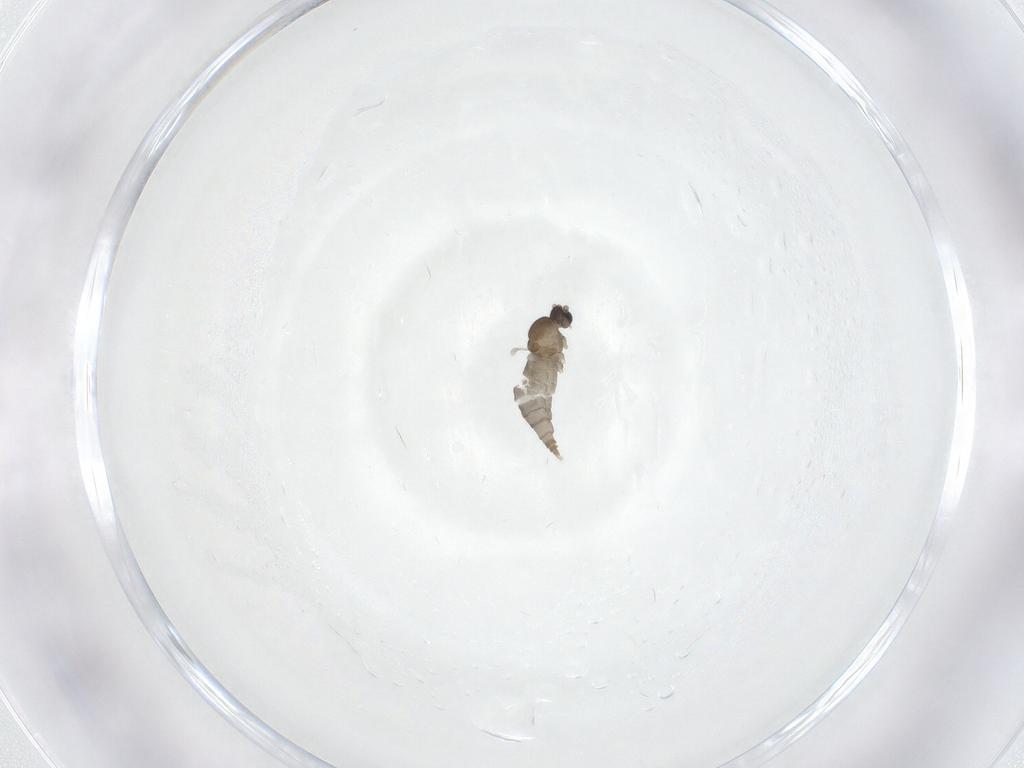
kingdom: Animalia
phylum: Arthropoda
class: Insecta
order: Diptera
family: Cecidomyiidae
